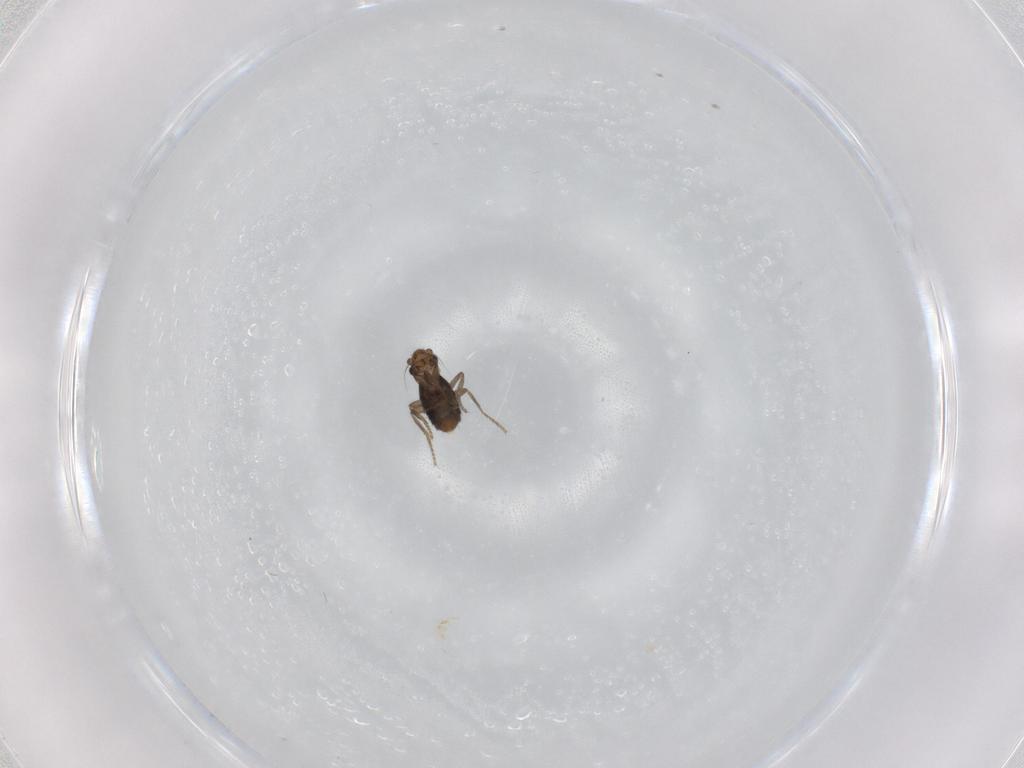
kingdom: Animalia
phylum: Arthropoda
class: Insecta
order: Diptera
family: Phoridae
